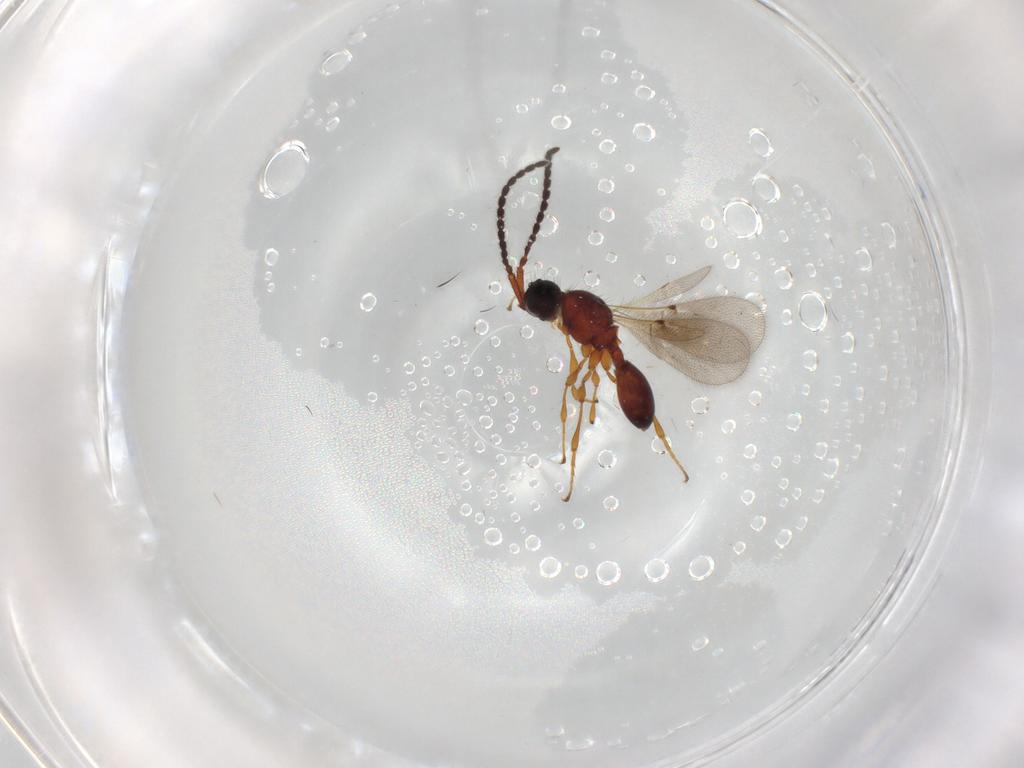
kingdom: Animalia
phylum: Arthropoda
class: Insecta
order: Hymenoptera
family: Diapriidae
